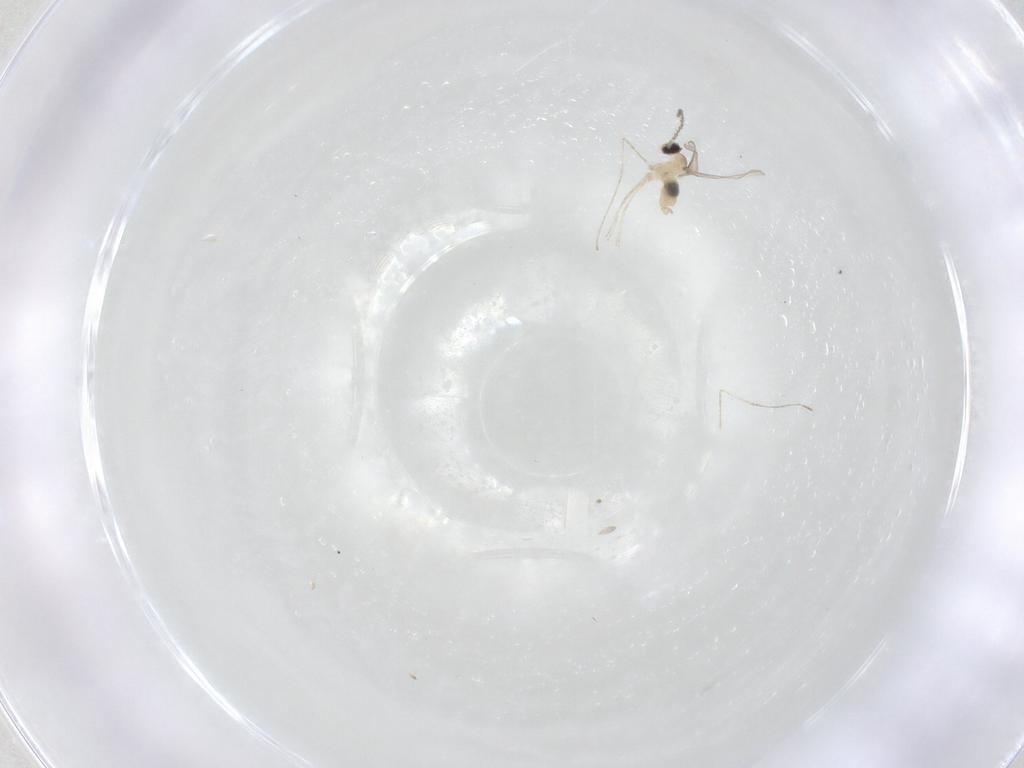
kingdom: Animalia
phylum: Arthropoda
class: Insecta
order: Diptera
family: Cecidomyiidae
